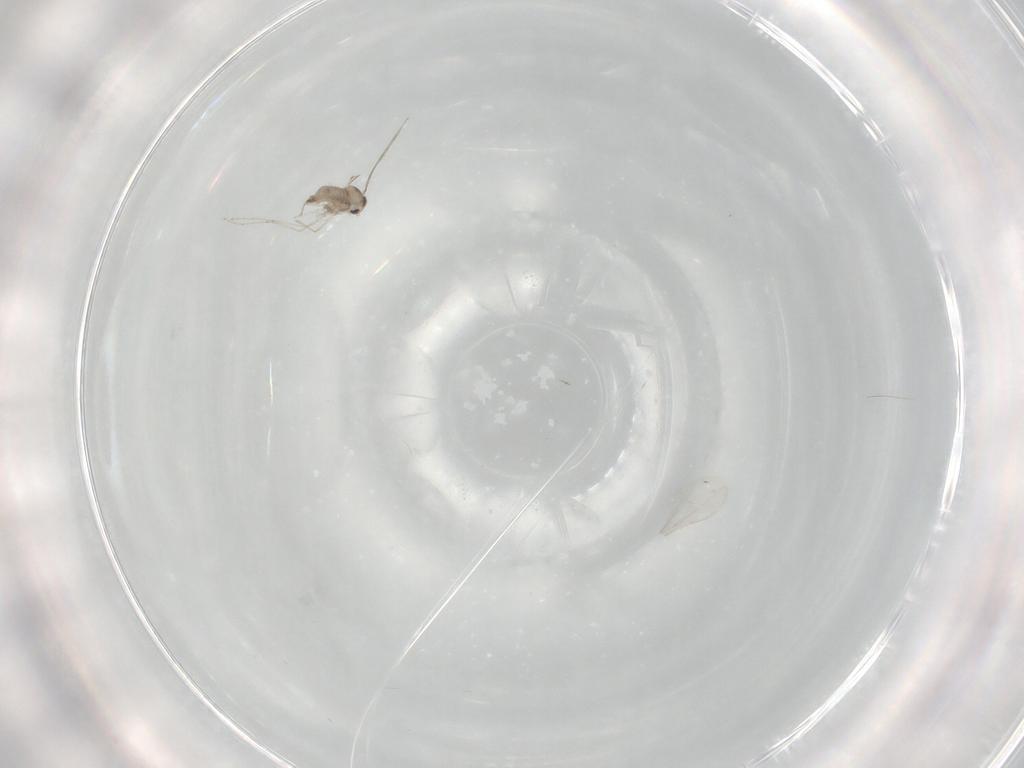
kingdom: Animalia
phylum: Arthropoda
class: Insecta
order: Diptera
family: Cecidomyiidae
